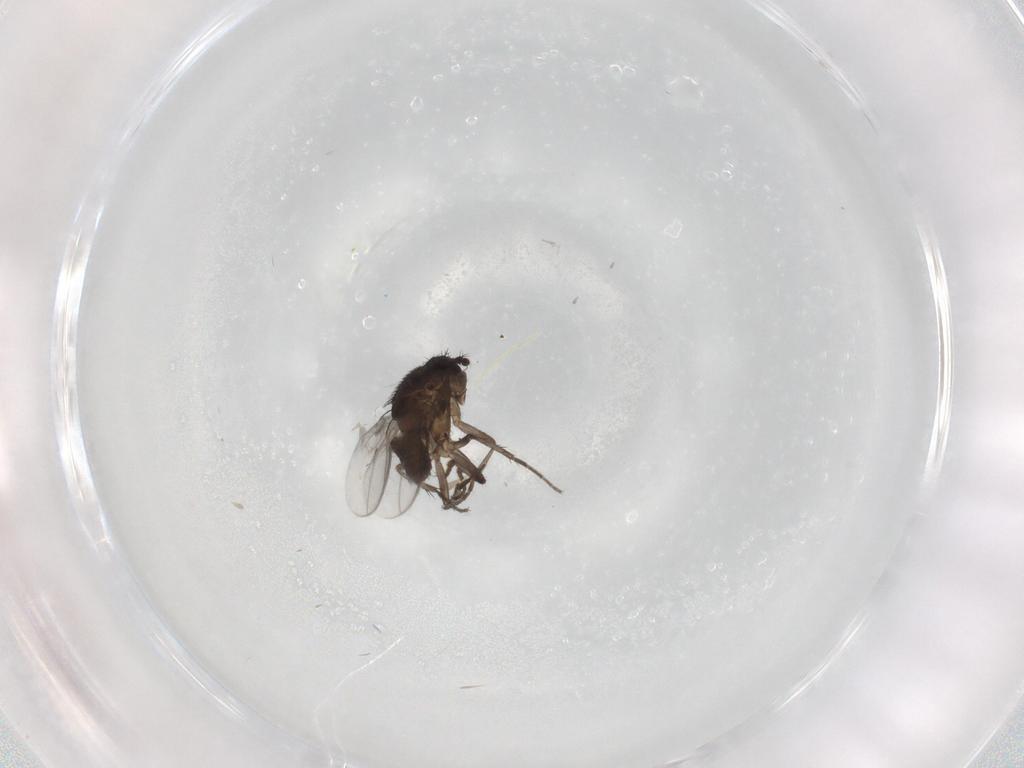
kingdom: Animalia
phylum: Arthropoda
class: Insecta
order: Diptera
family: Sphaeroceridae
